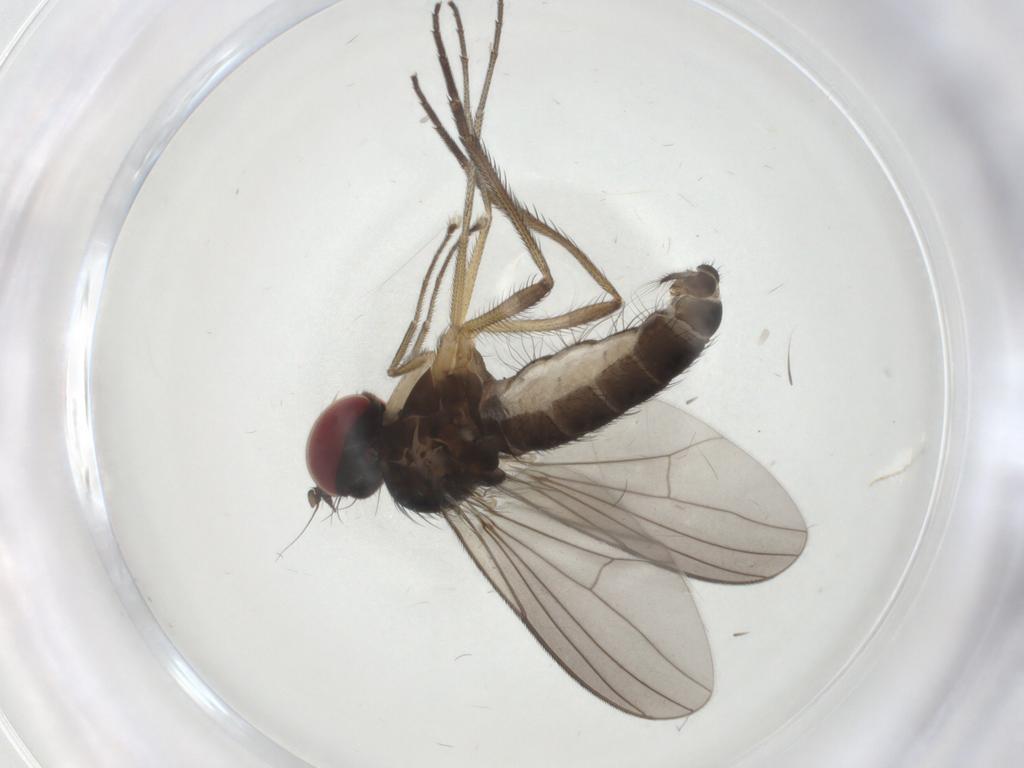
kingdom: Animalia
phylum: Arthropoda
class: Insecta
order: Diptera
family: Dolichopodidae
